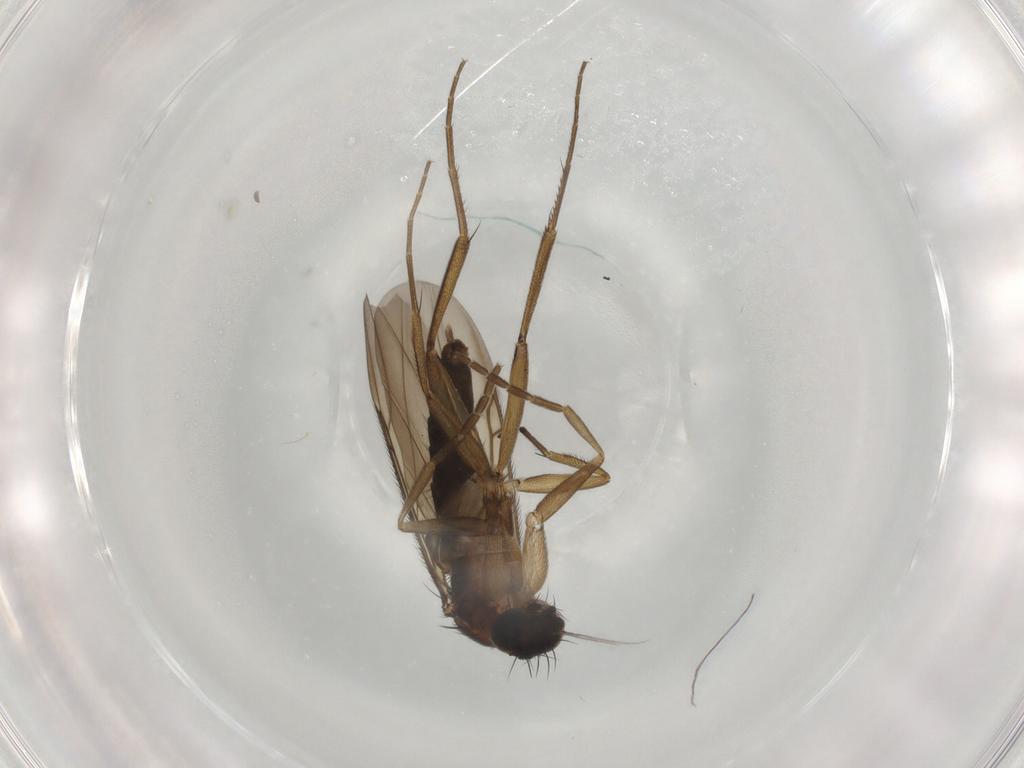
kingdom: Animalia
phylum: Arthropoda
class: Insecta
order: Diptera
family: Phoridae
